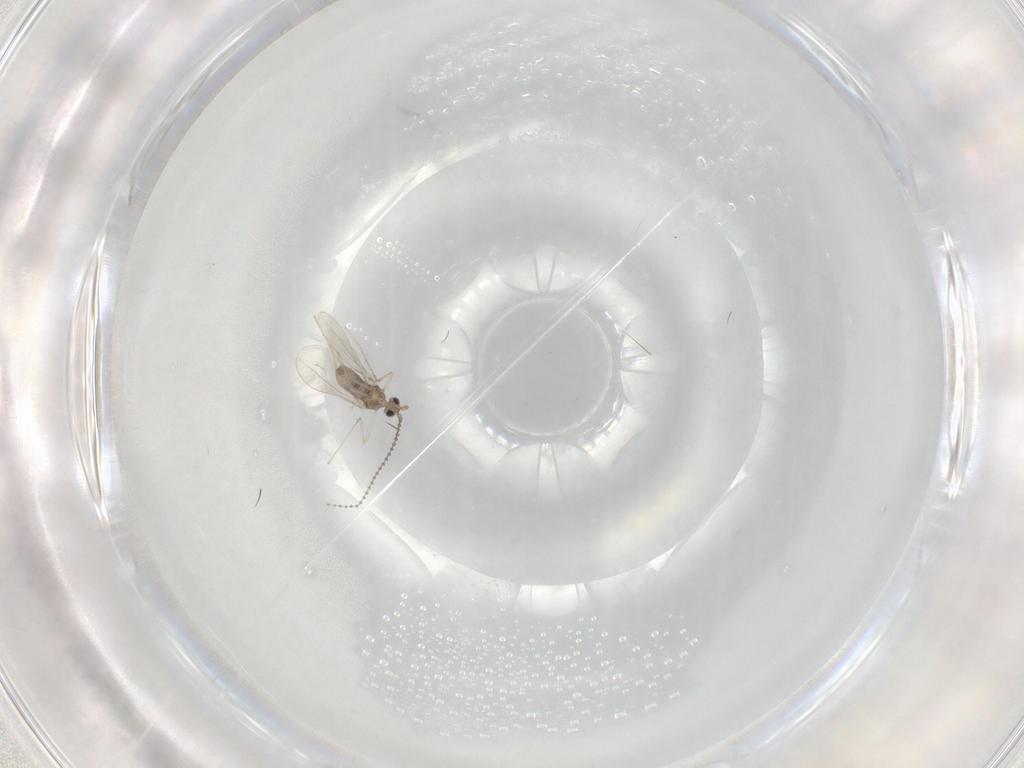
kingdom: Animalia
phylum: Arthropoda
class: Insecta
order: Diptera
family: Cecidomyiidae
